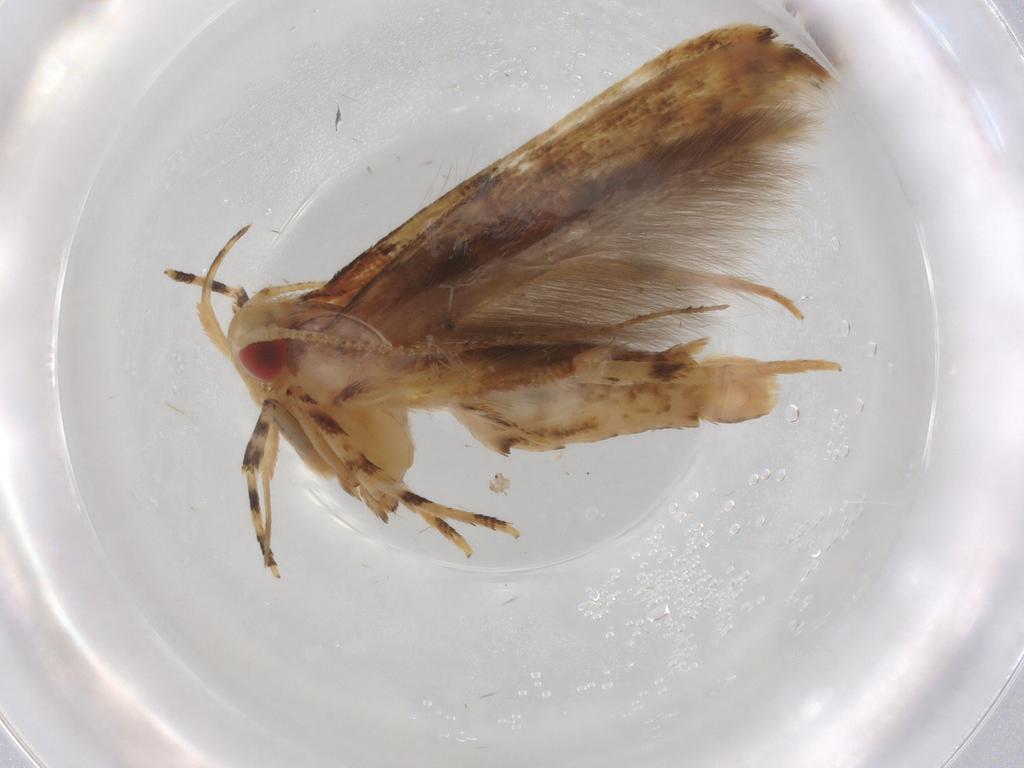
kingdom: Animalia
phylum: Arthropoda
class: Insecta
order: Lepidoptera
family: Cosmopterigidae
